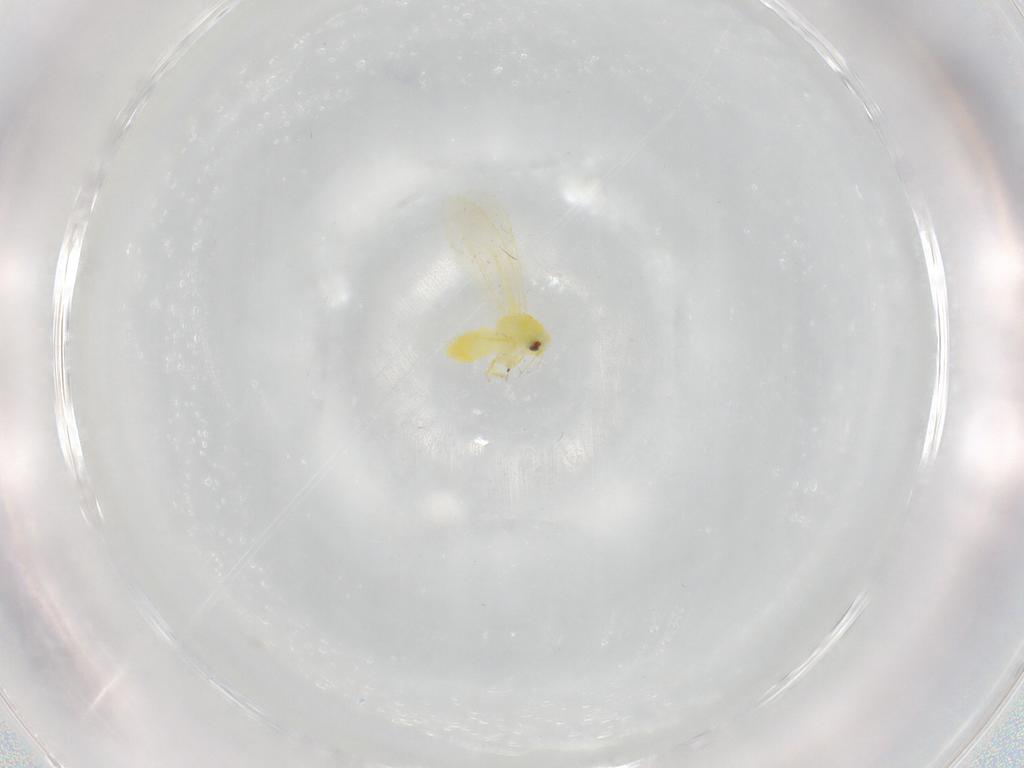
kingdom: Animalia
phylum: Arthropoda
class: Insecta
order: Hemiptera
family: Aleyrodidae
